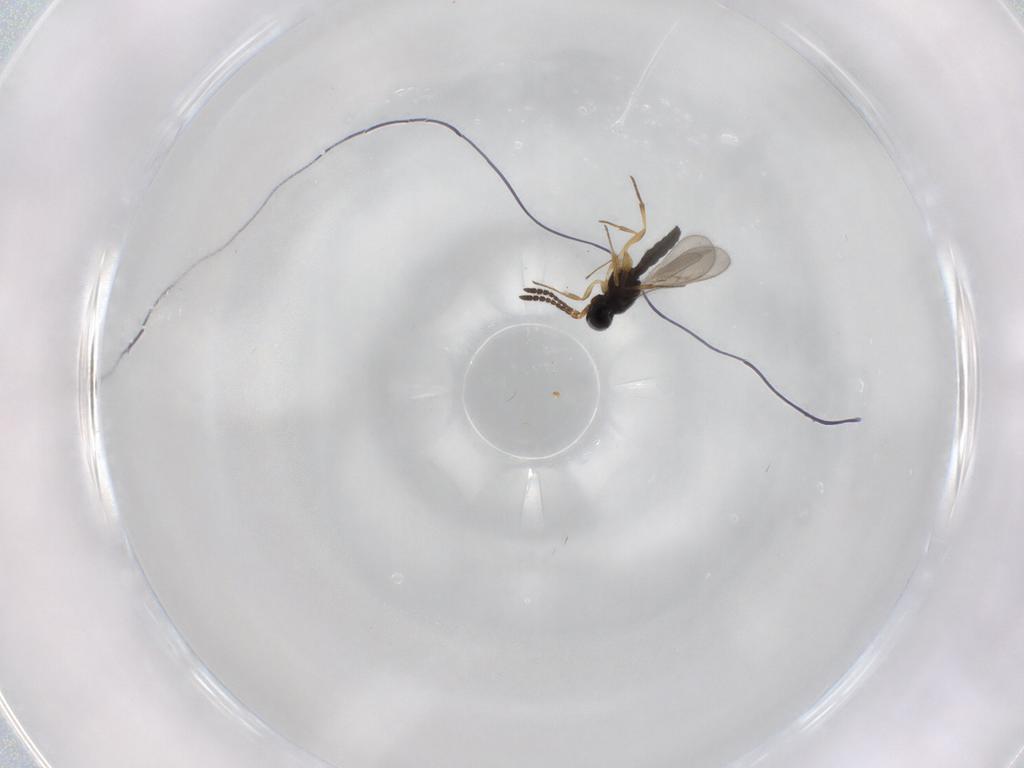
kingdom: Animalia
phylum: Arthropoda
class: Insecta
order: Hymenoptera
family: Scelionidae
